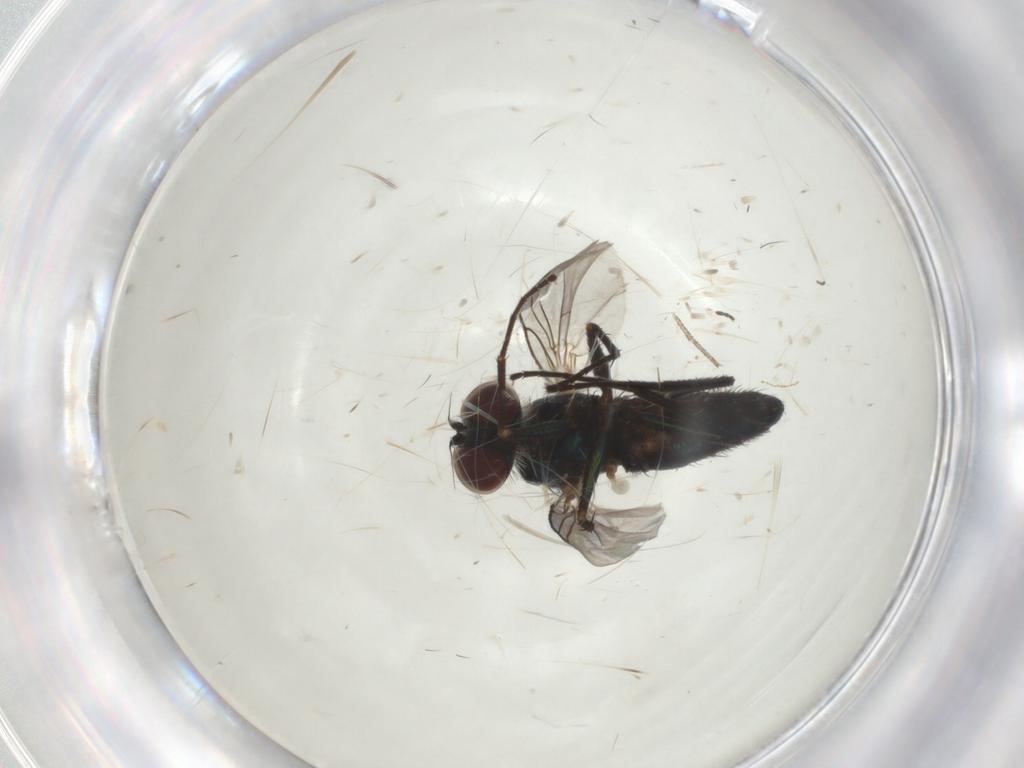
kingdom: Animalia
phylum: Arthropoda
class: Insecta
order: Diptera
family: Dolichopodidae
